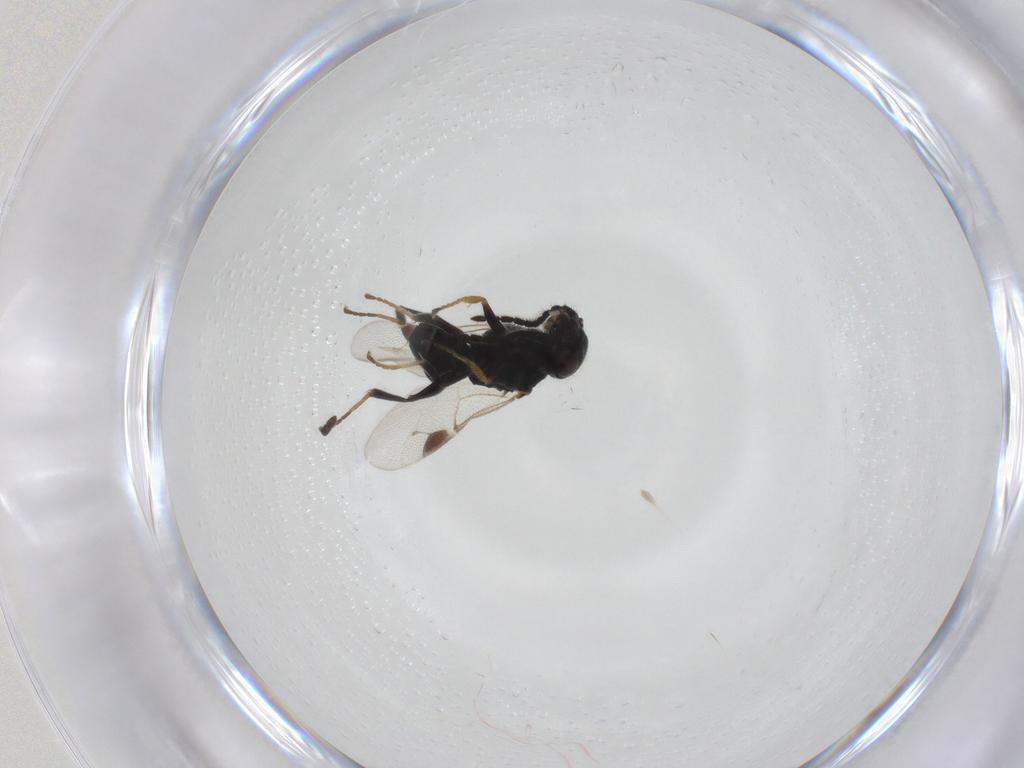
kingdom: Animalia
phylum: Arthropoda
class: Insecta
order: Hymenoptera
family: Dryinidae
